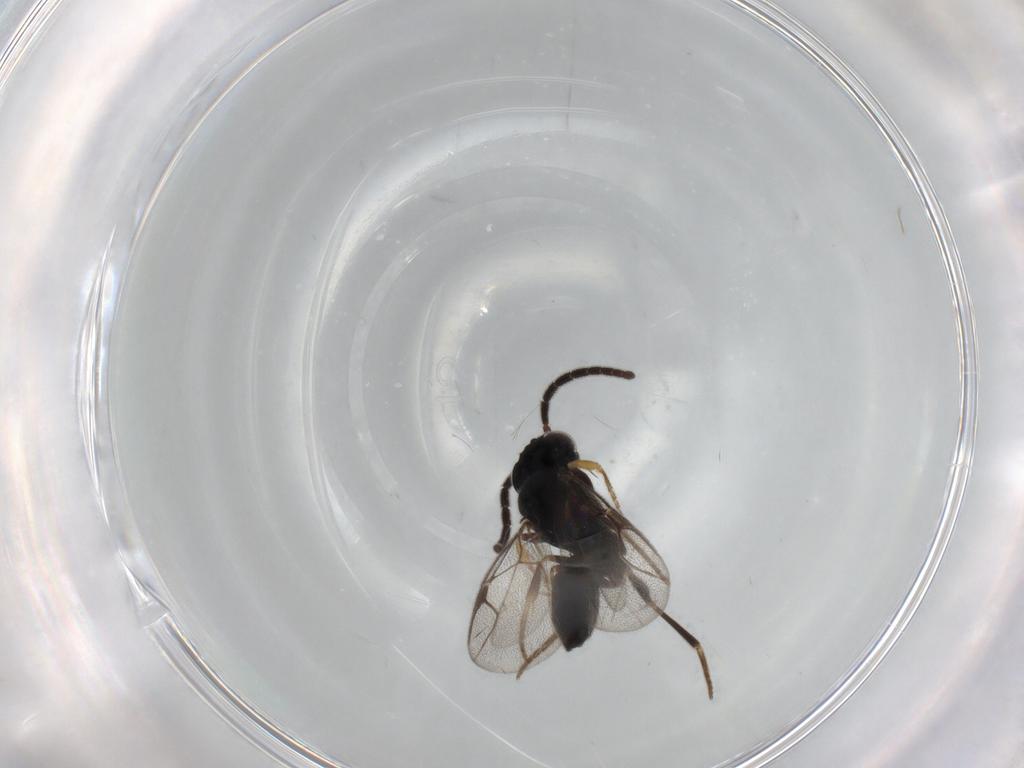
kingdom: Animalia
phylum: Arthropoda
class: Insecta
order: Hymenoptera
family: Dryinidae
